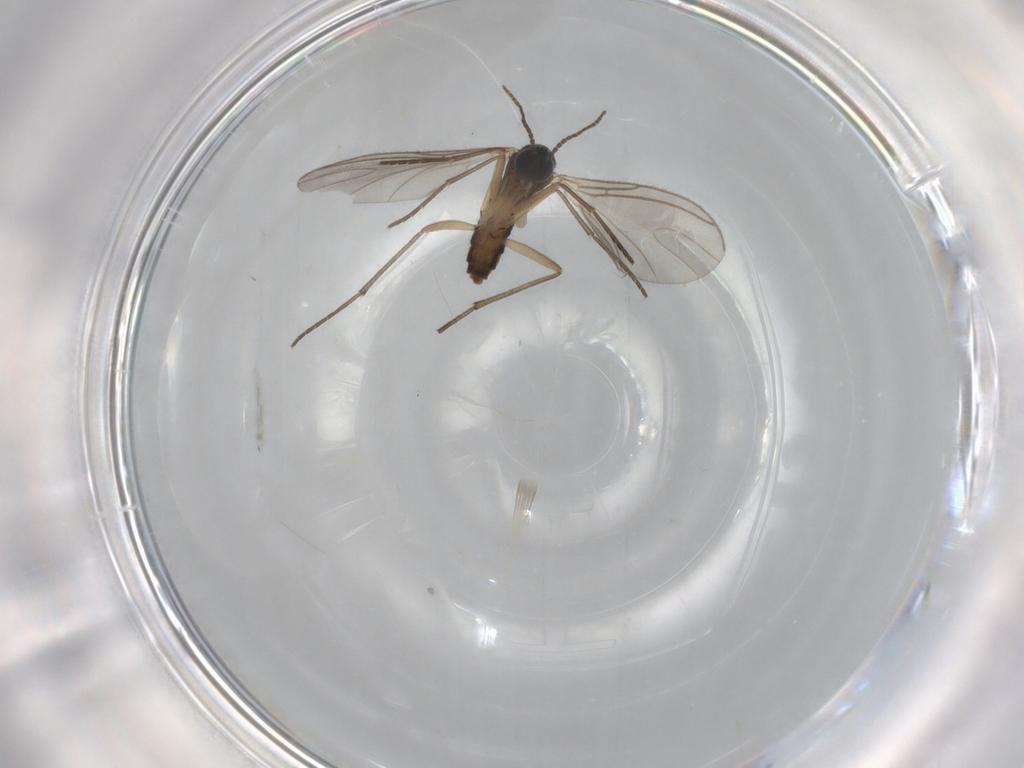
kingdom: Animalia
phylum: Arthropoda
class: Insecta
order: Diptera
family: Sciaridae
